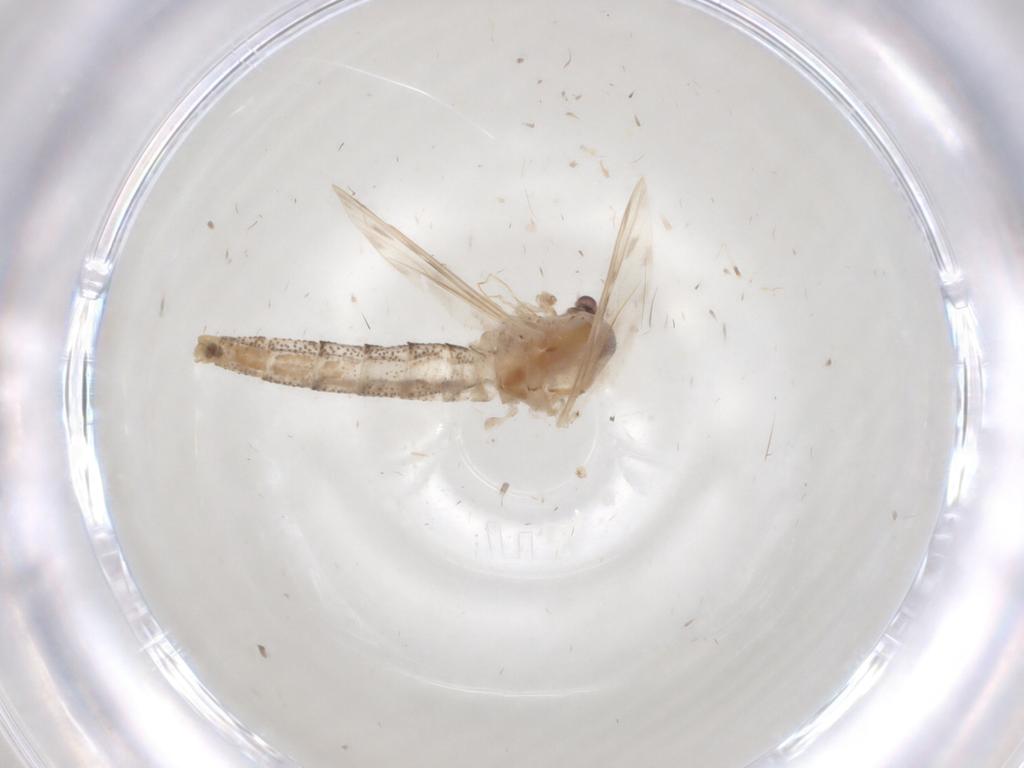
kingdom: Animalia
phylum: Arthropoda
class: Insecta
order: Diptera
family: Chaoboridae
